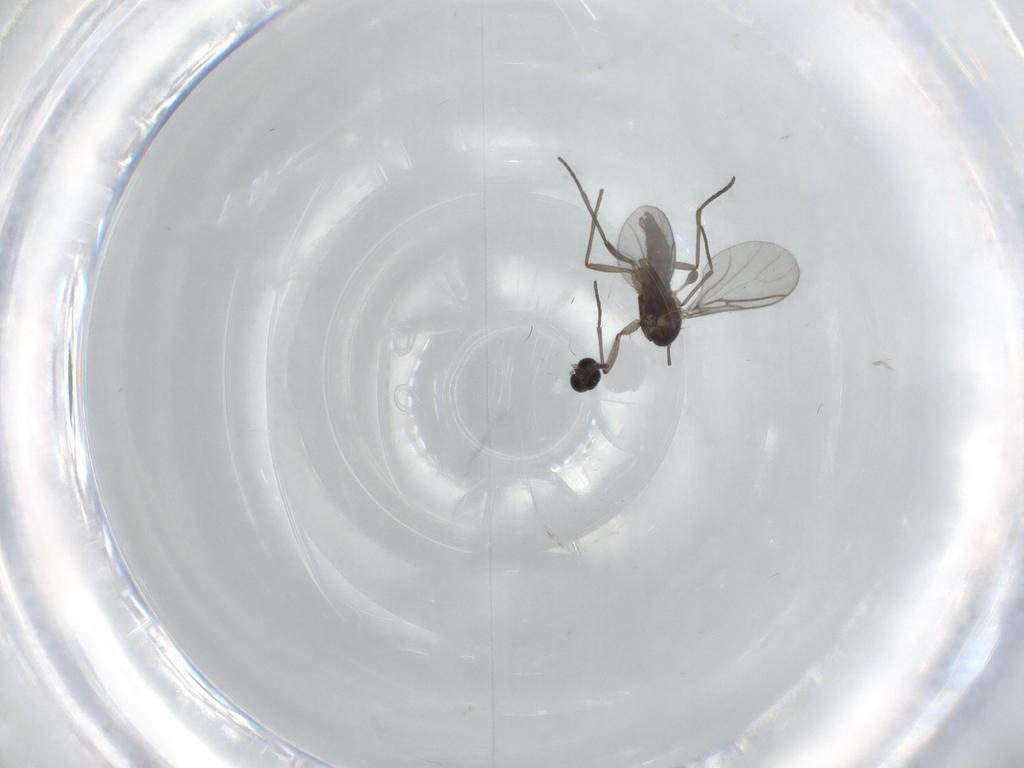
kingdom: Animalia
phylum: Arthropoda
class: Insecta
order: Diptera
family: Cecidomyiidae
